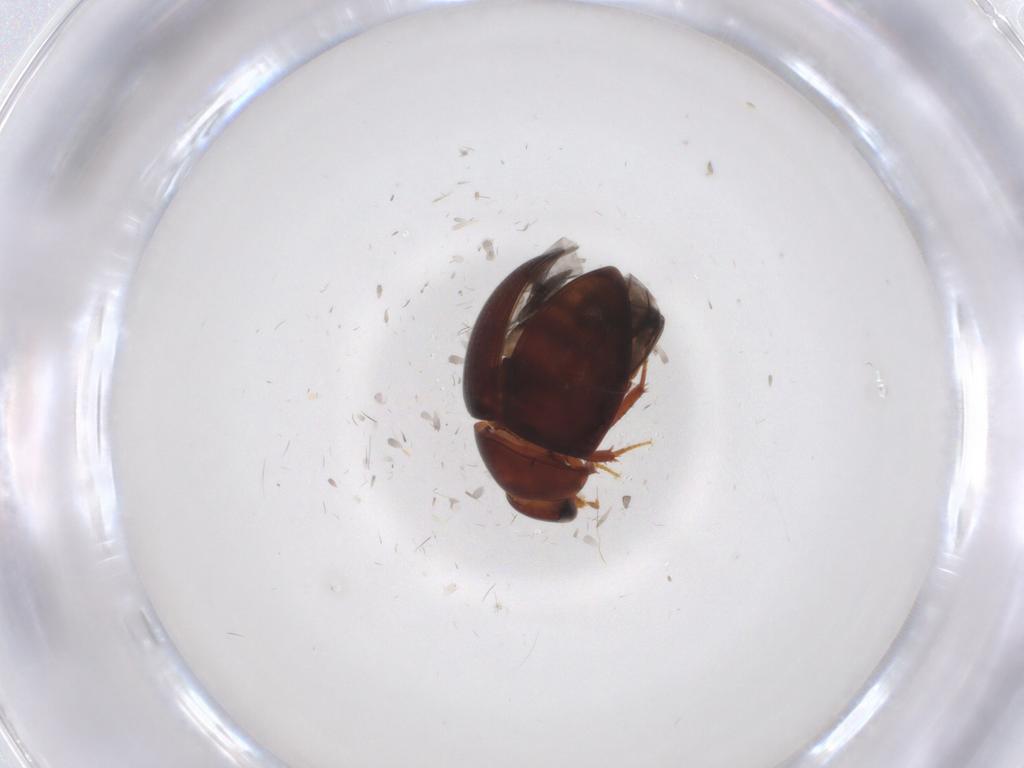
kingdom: Animalia
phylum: Arthropoda
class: Insecta
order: Coleoptera
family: Hydrophilidae
